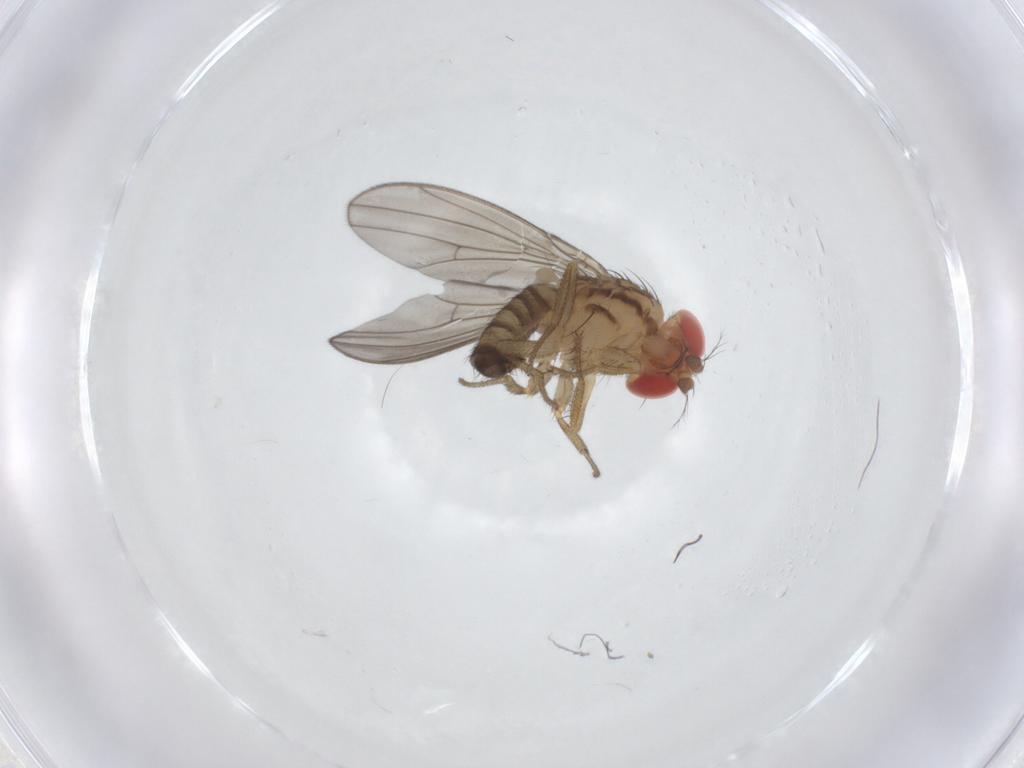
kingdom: Animalia
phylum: Arthropoda
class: Insecta
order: Diptera
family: Drosophilidae
